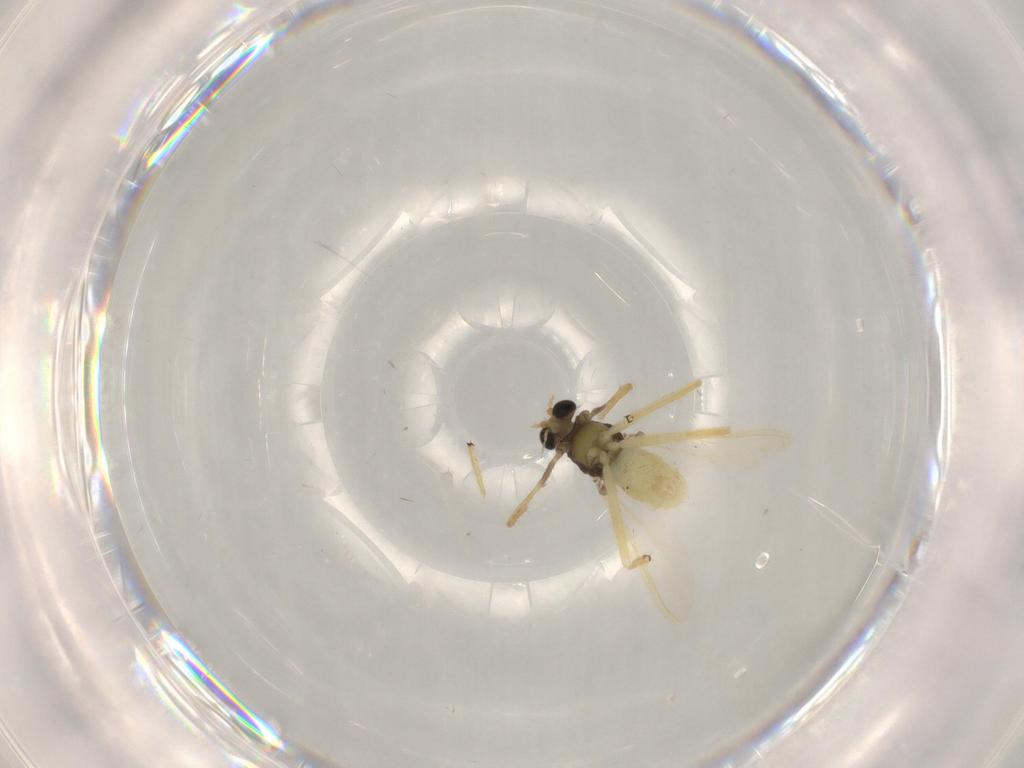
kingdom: Animalia
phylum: Arthropoda
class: Insecta
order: Diptera
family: Chironomidae
